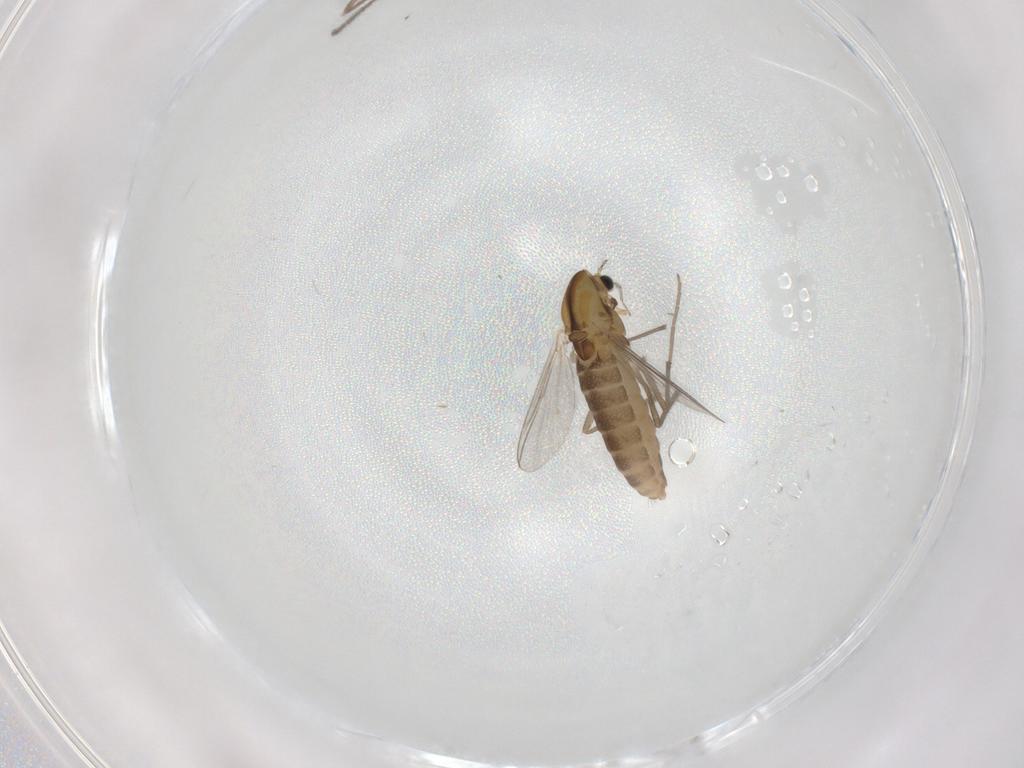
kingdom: Animalia
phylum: Arthropoda
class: Insecta
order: Diptera
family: Chironomidae
